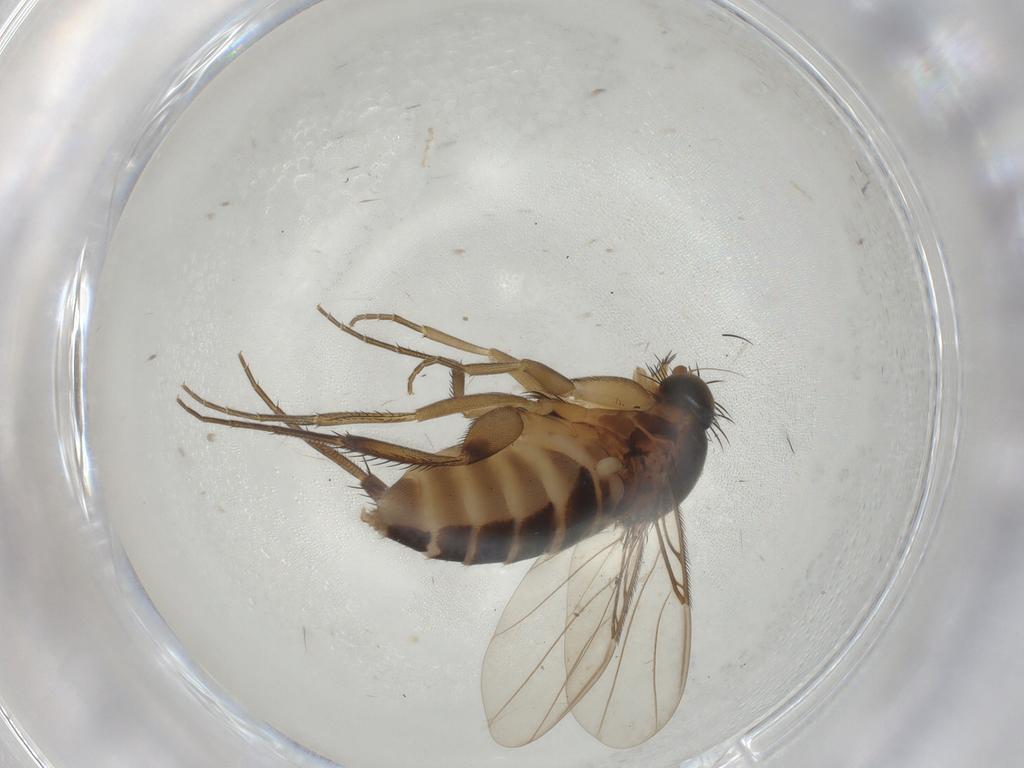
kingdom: Animalia
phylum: Arthropoda
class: Insecta
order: Diptera
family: Phoridae
